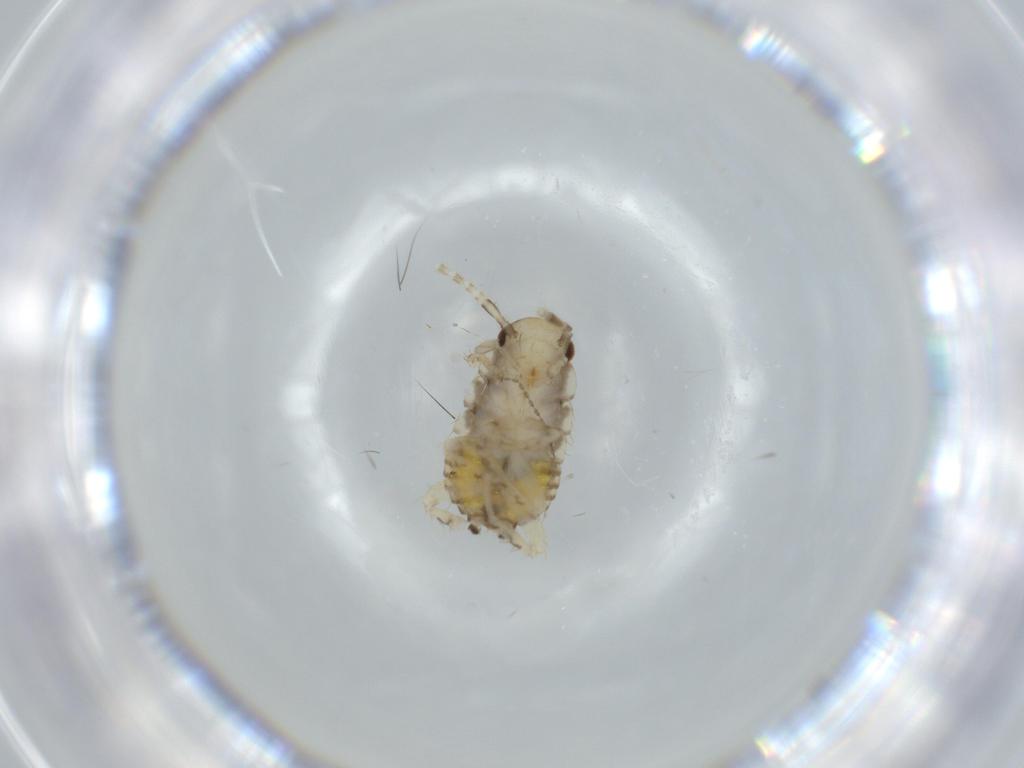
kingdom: Animalia
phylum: Arthropoda
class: Insecta
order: Blattodea
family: Ectobiidae
